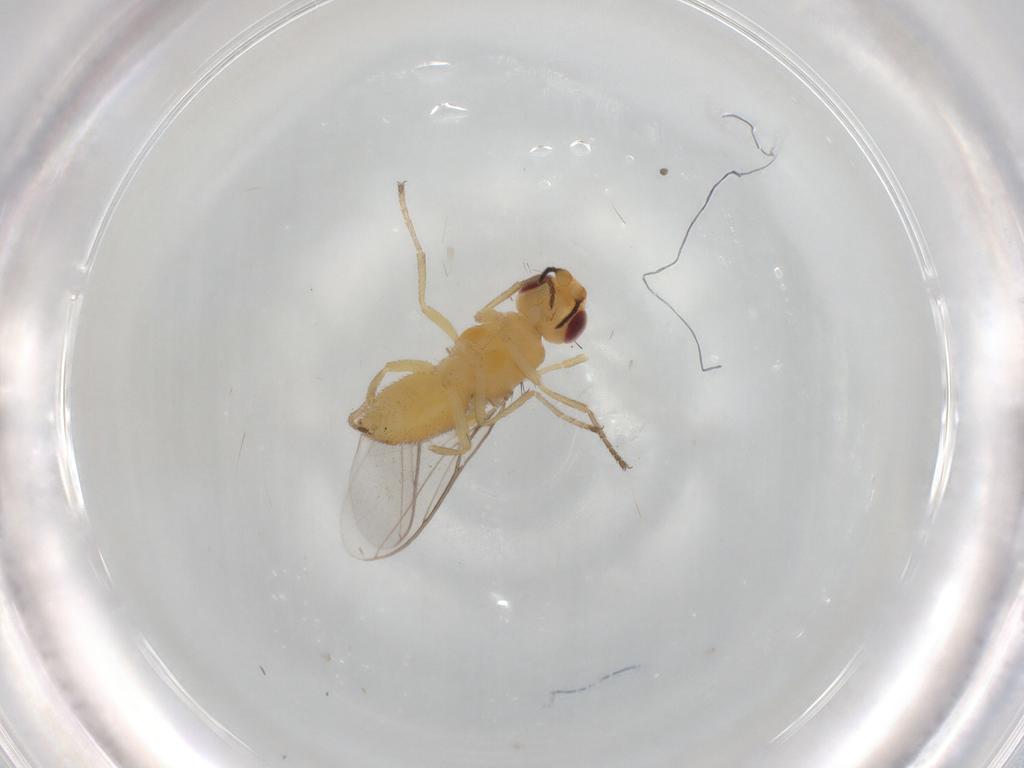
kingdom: Animalia
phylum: Arthropoda
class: Insecta
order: Diptera
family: Chloropidae
